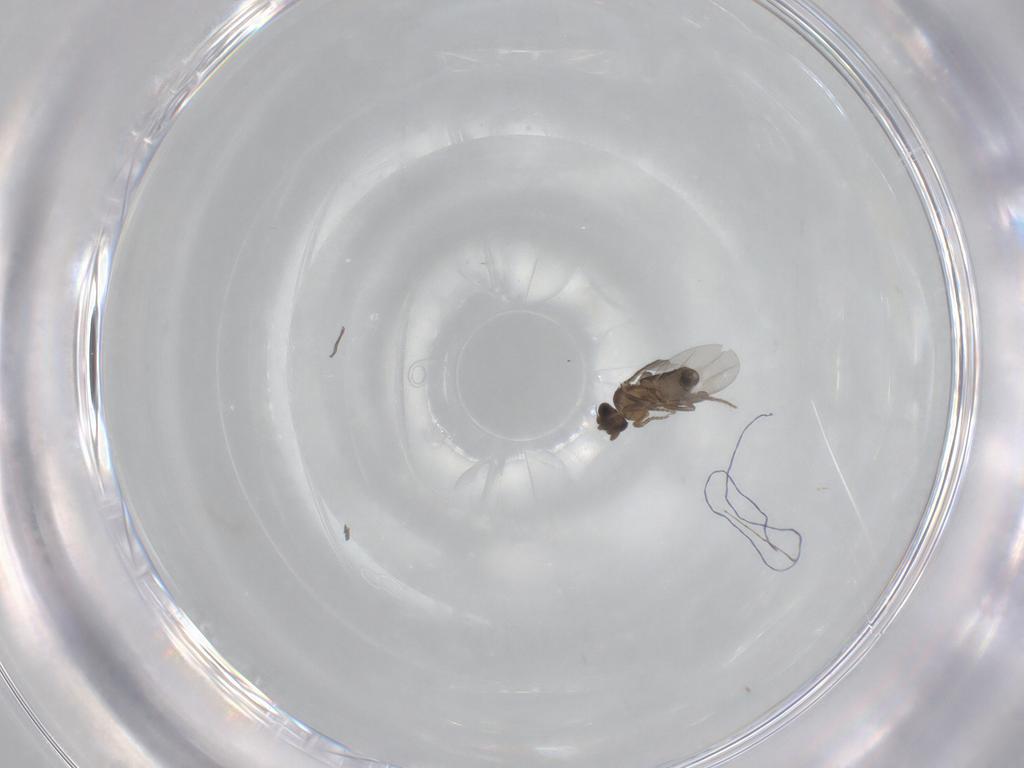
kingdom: Animalia
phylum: Arthropoda
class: Insecta
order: Diptera
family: Phoridae
